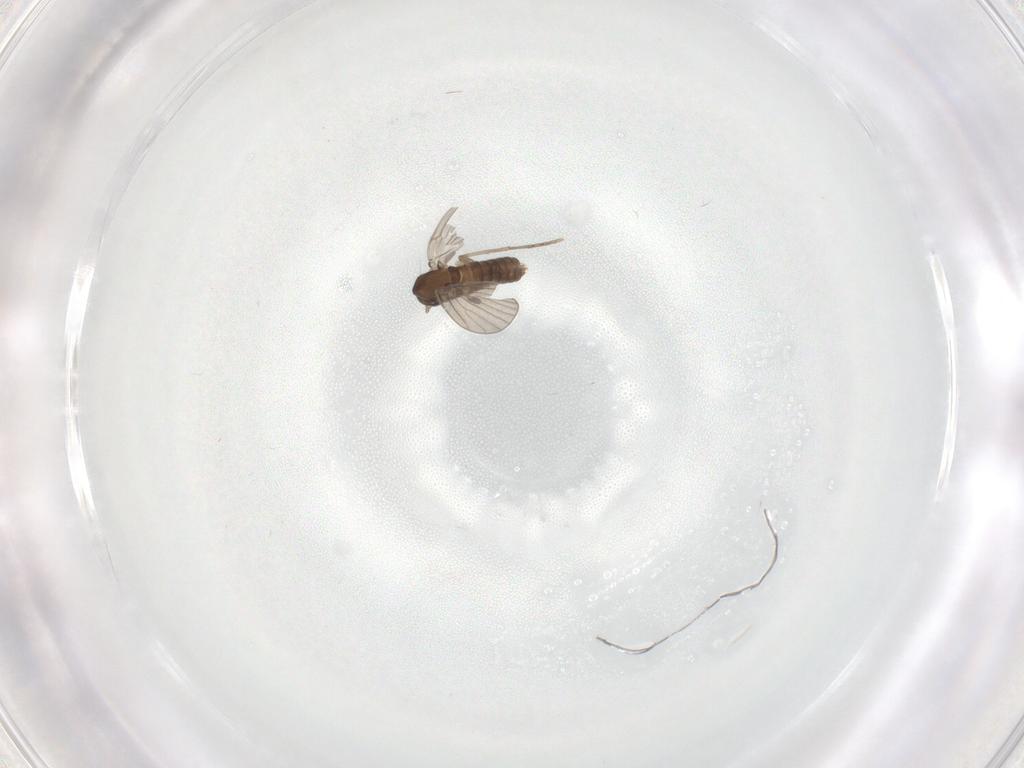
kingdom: Animalia
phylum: Arthropoda
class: Insecta
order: Diptera
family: Psychodidae
